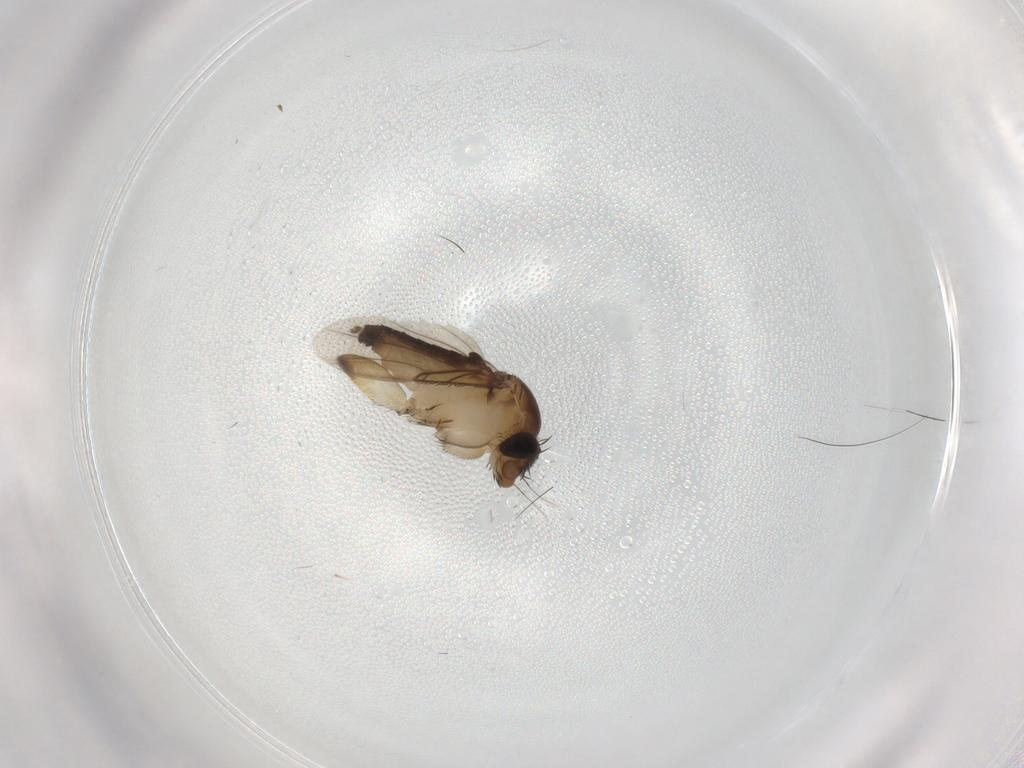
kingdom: Animalia
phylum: Arthropoda
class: Insecta
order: Diptera
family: Phoridae
